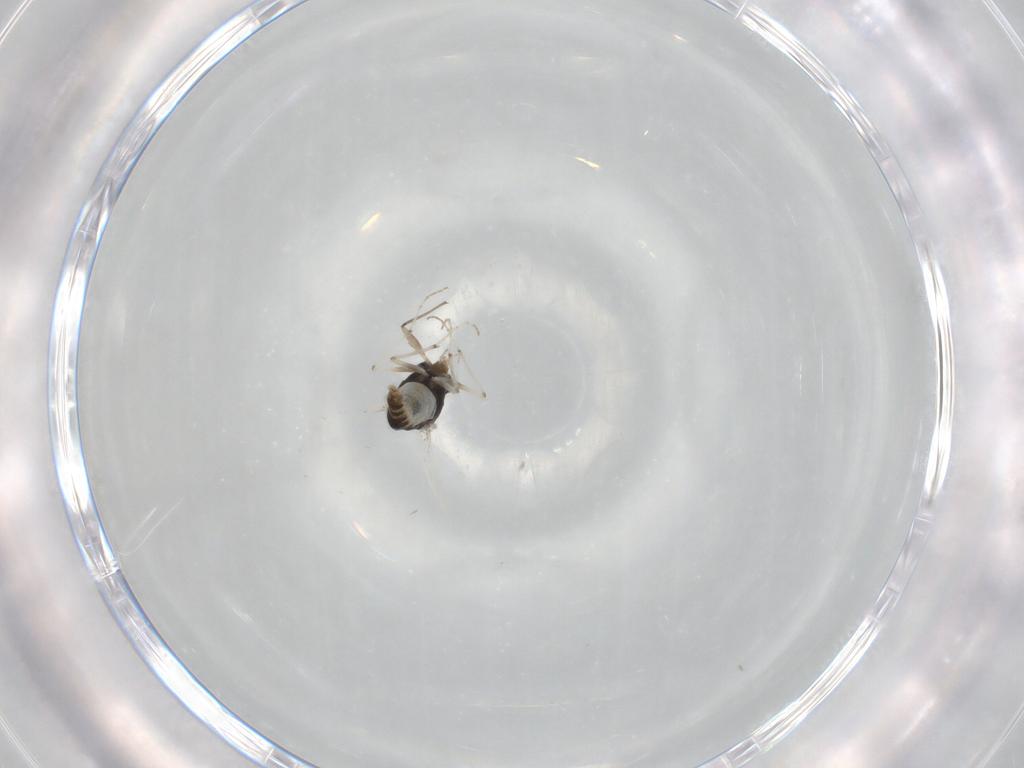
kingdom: Animalia
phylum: Arthropoda
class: Insecta
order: Diptera
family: Chironomidae
